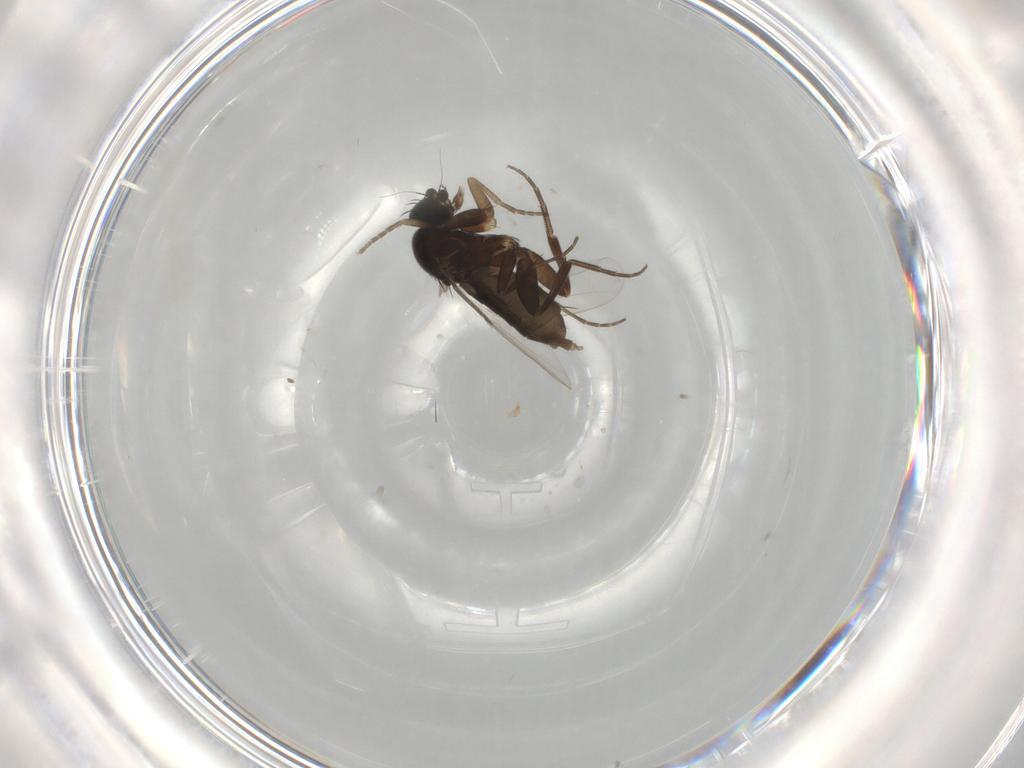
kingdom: Animalia
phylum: Arthropoda
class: Insecta
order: Diptera
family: Phoridae
